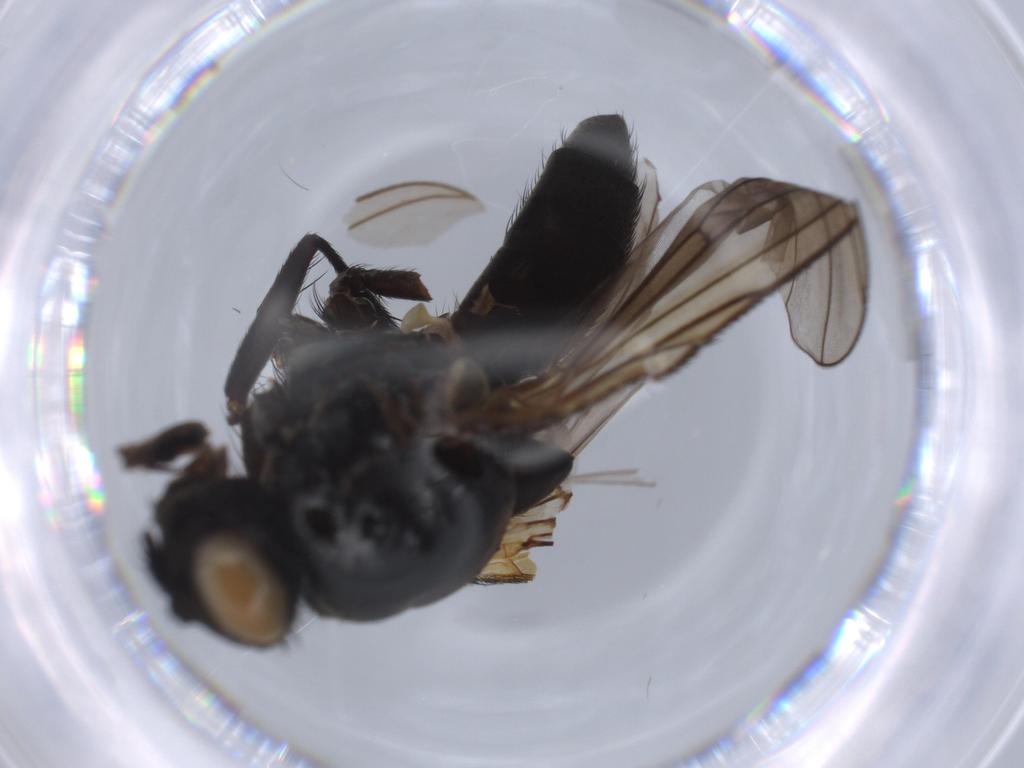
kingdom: Animalia
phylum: Arthropoda
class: Insecta
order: Diptera
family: Anthomyiidae
